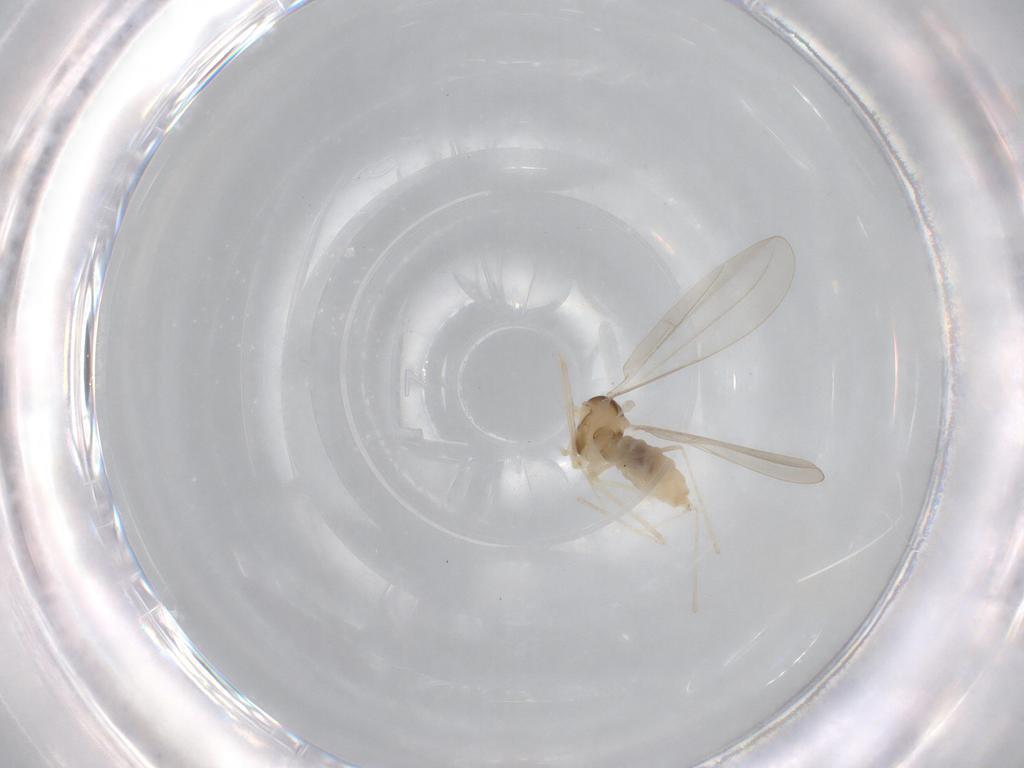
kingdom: Animalia
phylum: Arthropoda
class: Insecta
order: Diptera
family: Cecidomyiidae
